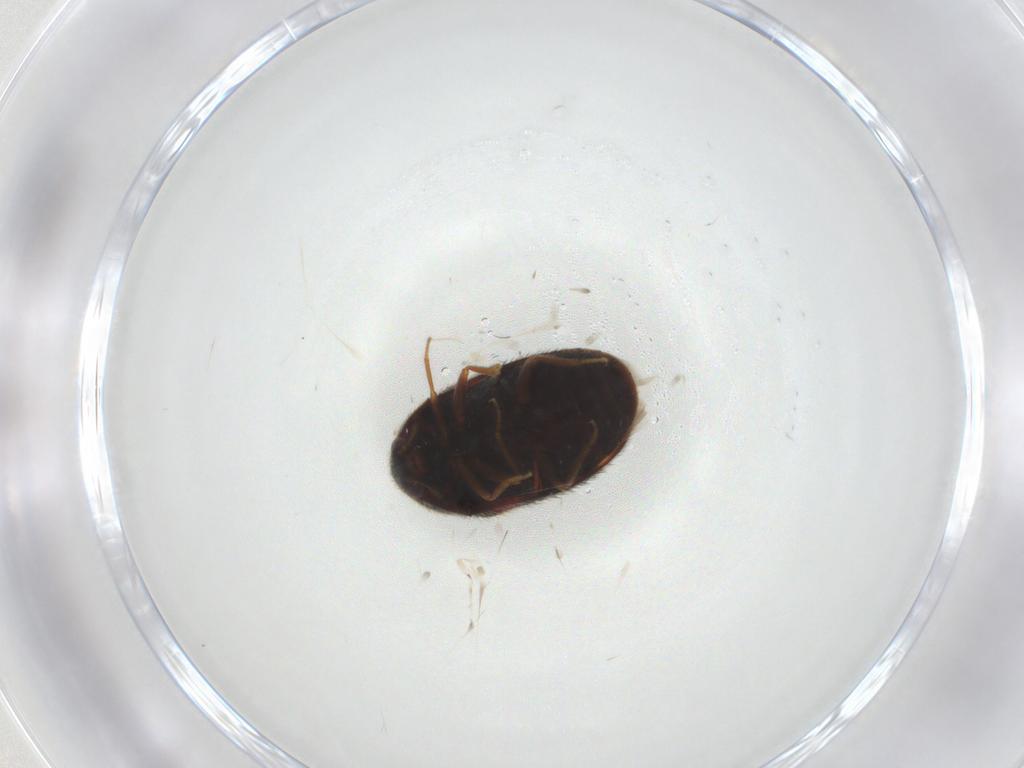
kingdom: Animalia
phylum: Arthropoda
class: Insecta
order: Coleoptera
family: Dermestidae
